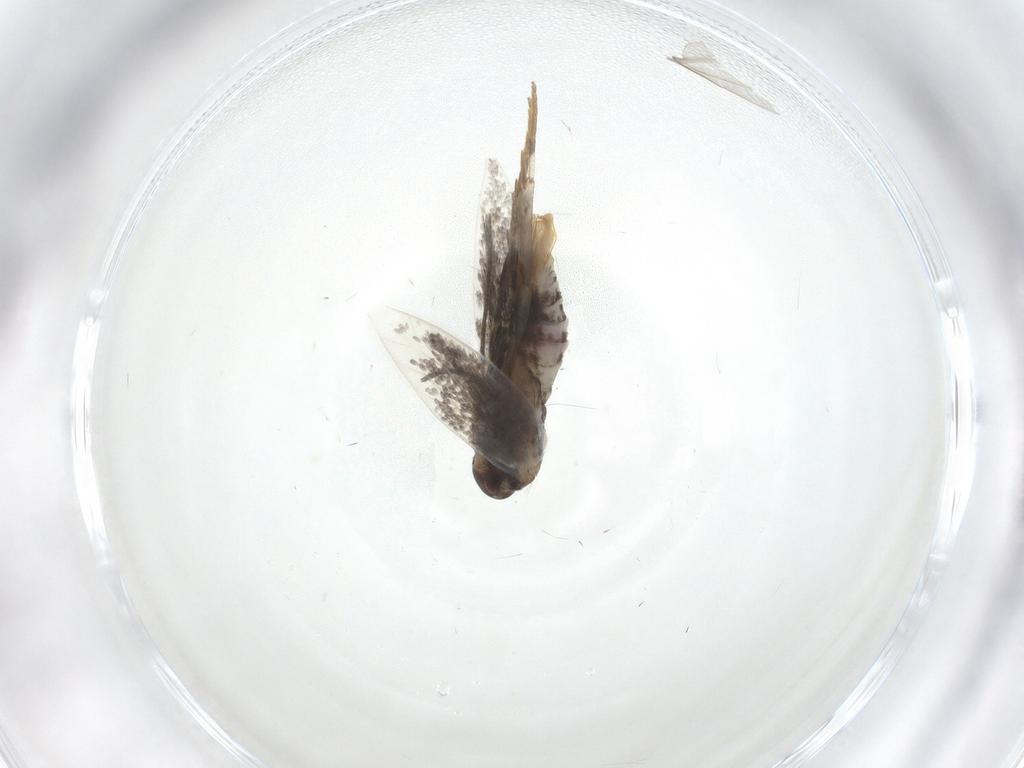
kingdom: Animalia
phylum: Arthropoda
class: Insecta
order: Lepidoptera
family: Elachistidae
